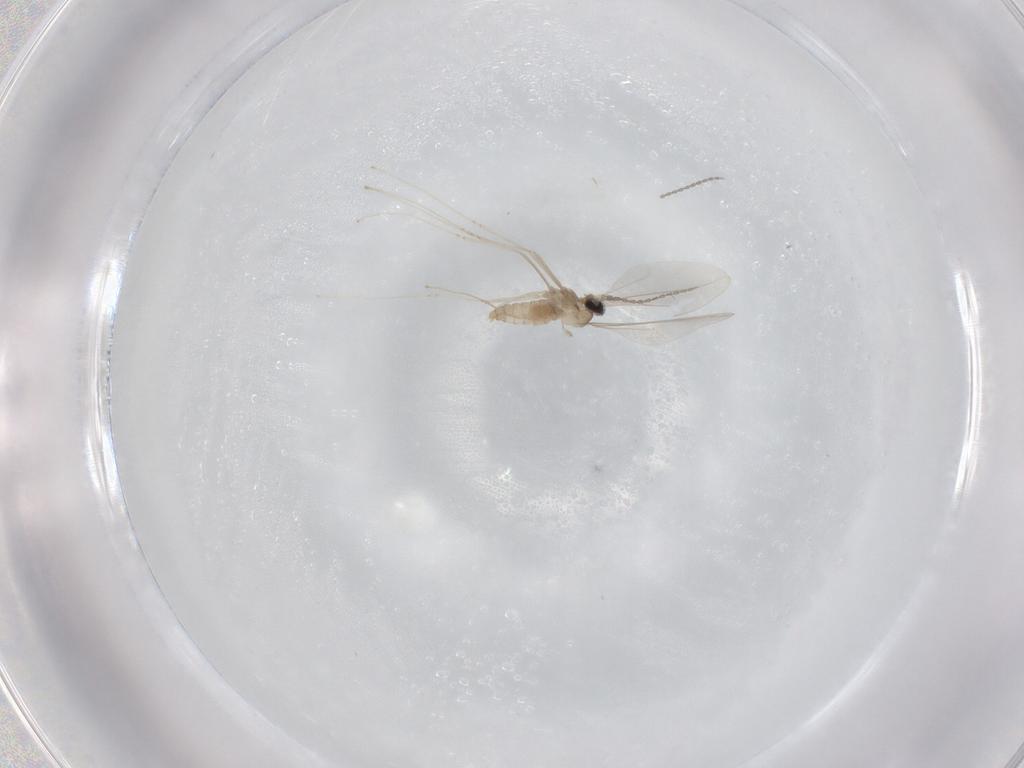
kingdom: Animalia
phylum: Arthropoda
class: Insecta
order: Diptera
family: Cecidomyiidae
